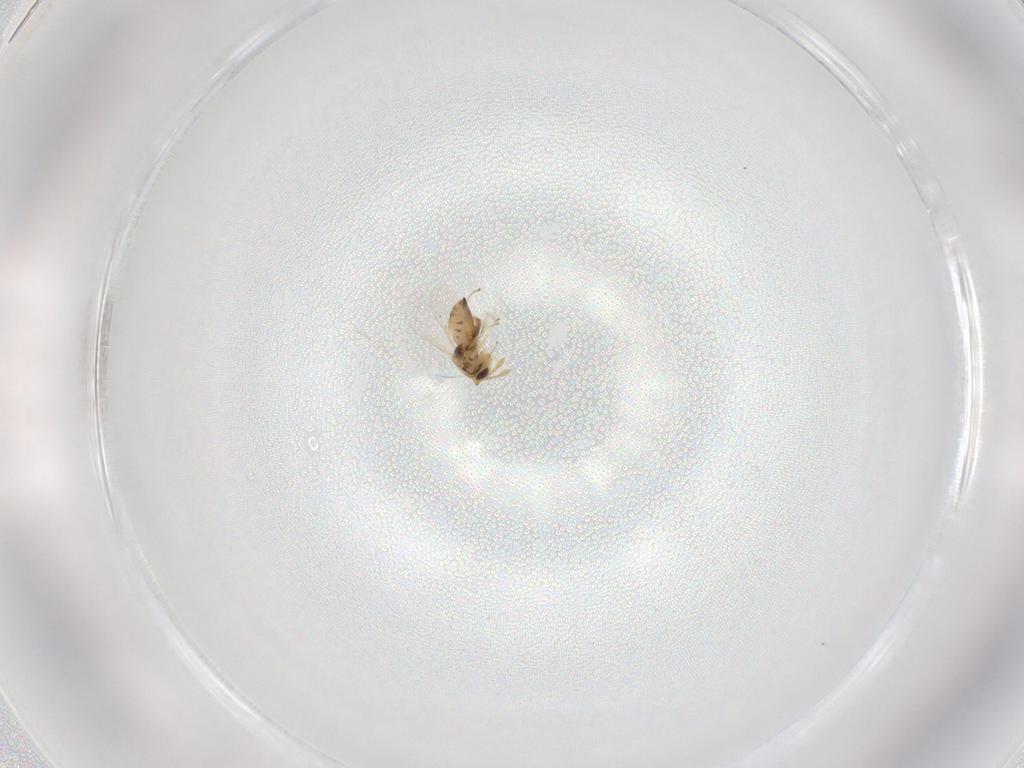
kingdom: Animalia
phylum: Arthropoda
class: Insecta
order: Hymenoptera
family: Eulophidae
